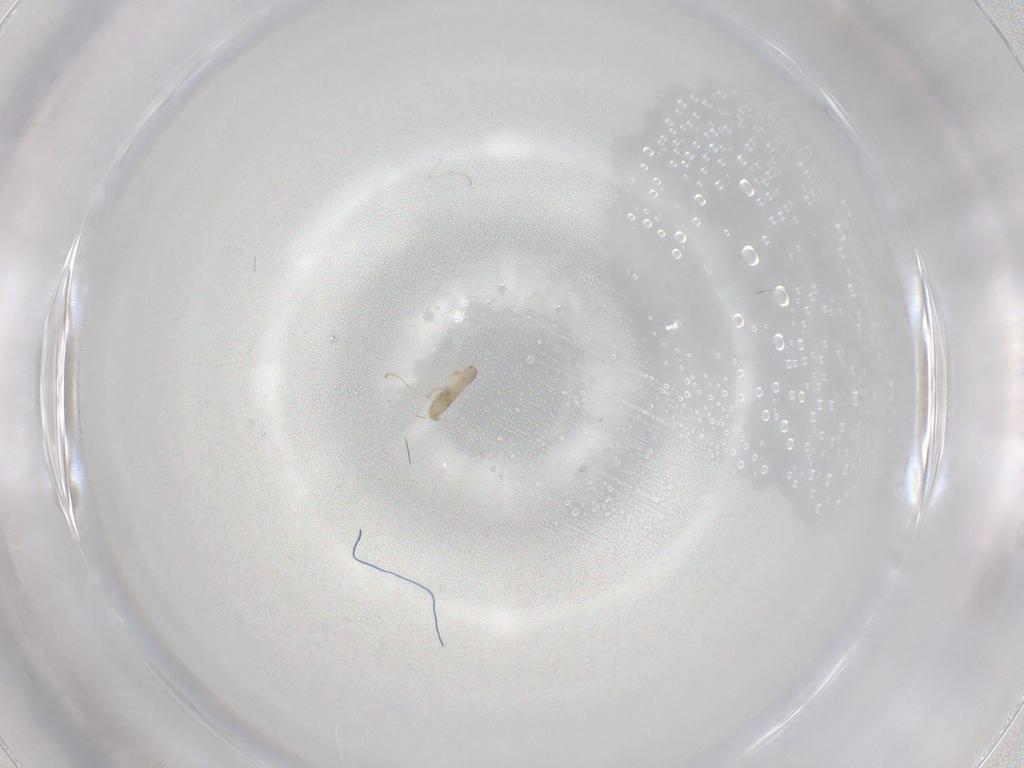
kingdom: Animalia
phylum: Arthropoda
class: Insecta
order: Diptera
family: Cecidomyiidae
